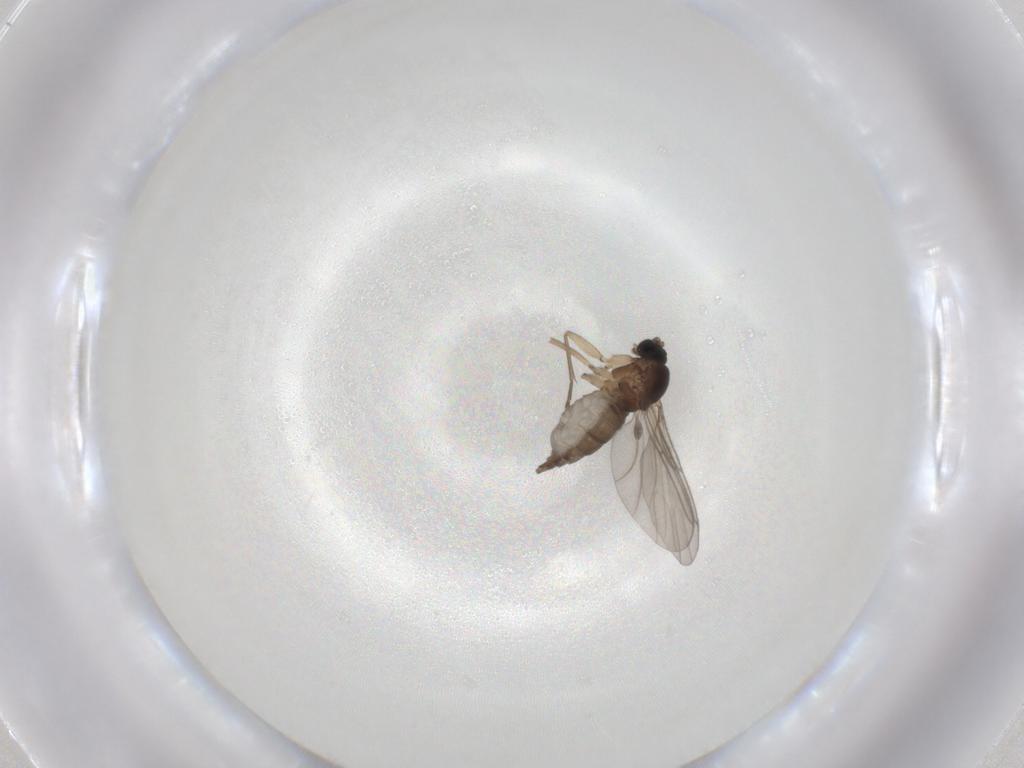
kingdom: Animalia
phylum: Arthropoda
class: Insecta
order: Diptera
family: Sciaridae
